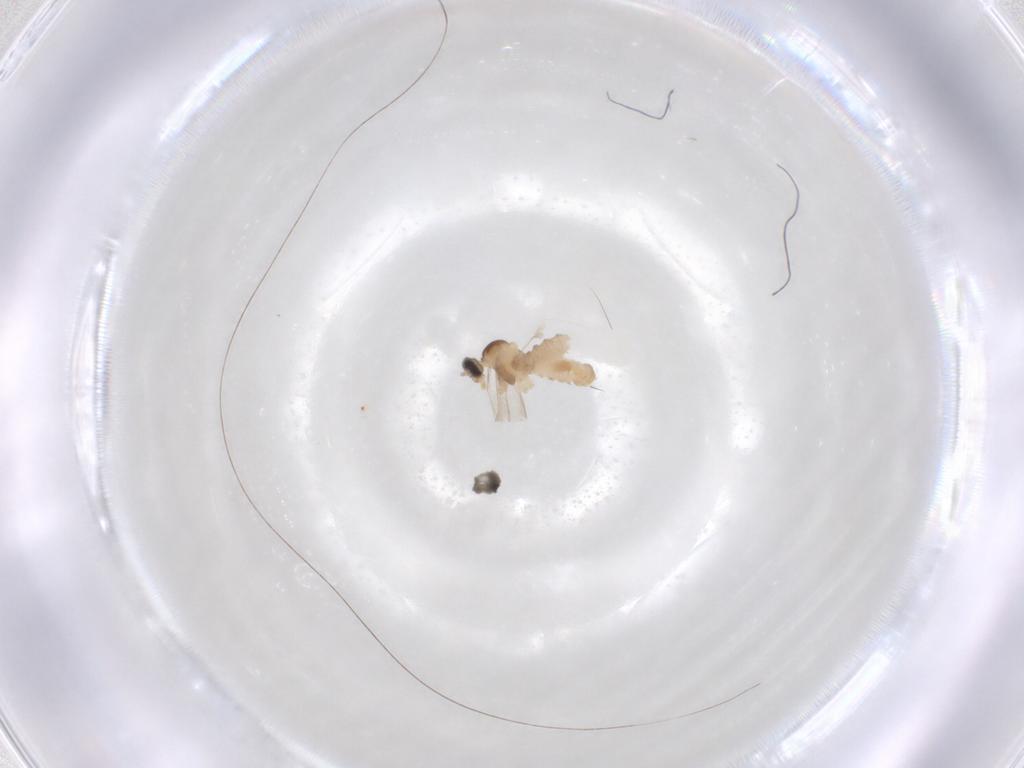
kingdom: Animalia
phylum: Arthropoda
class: Insecta
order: Diptera
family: Cecidomyiidae
